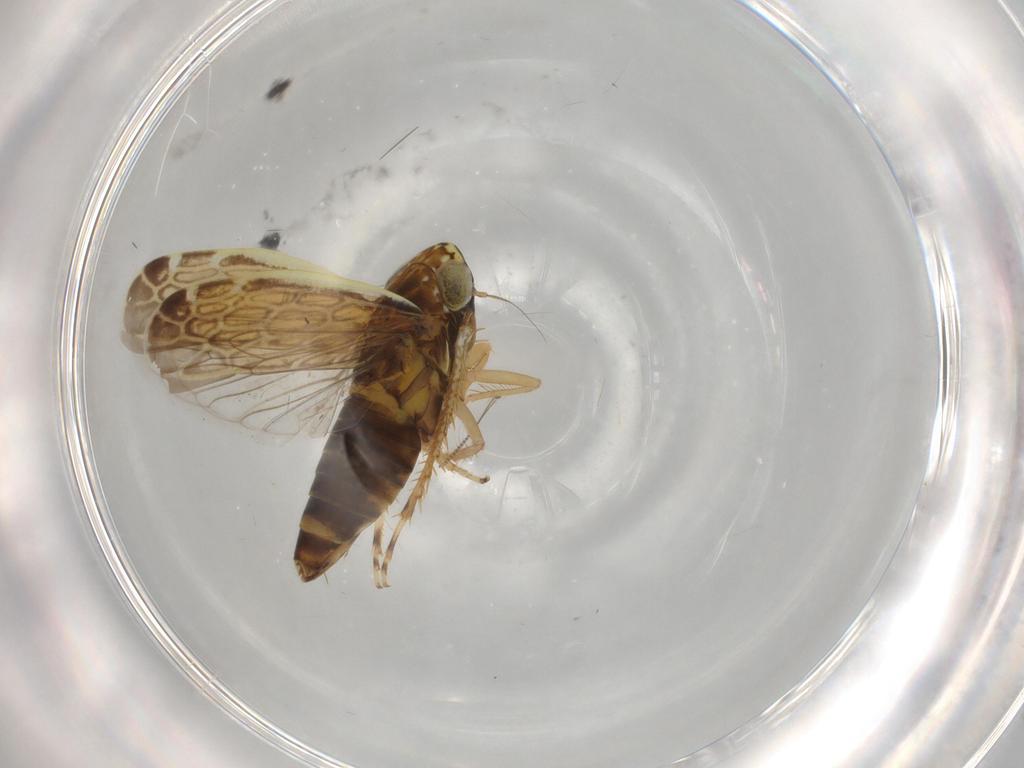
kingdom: Animalia
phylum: Arthropoda
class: Insecta
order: Hemiptera
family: Cicadellidae
